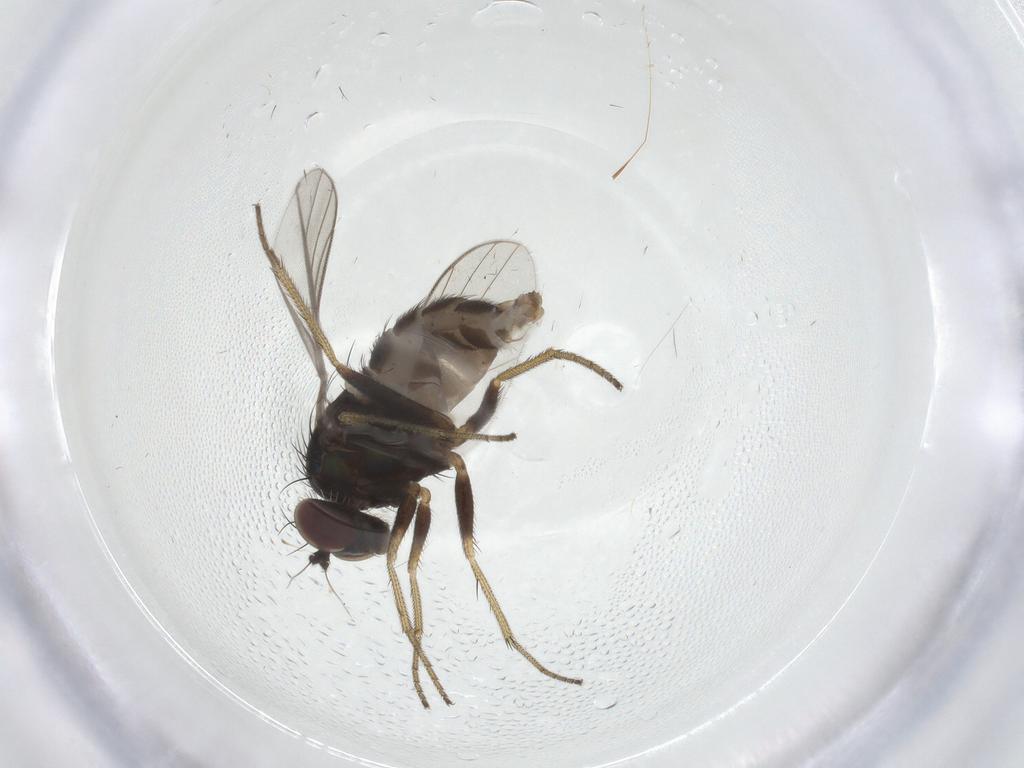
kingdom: Animalia
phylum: Arthropoda
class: Insecta
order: Diptera
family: Dolichopodidae
